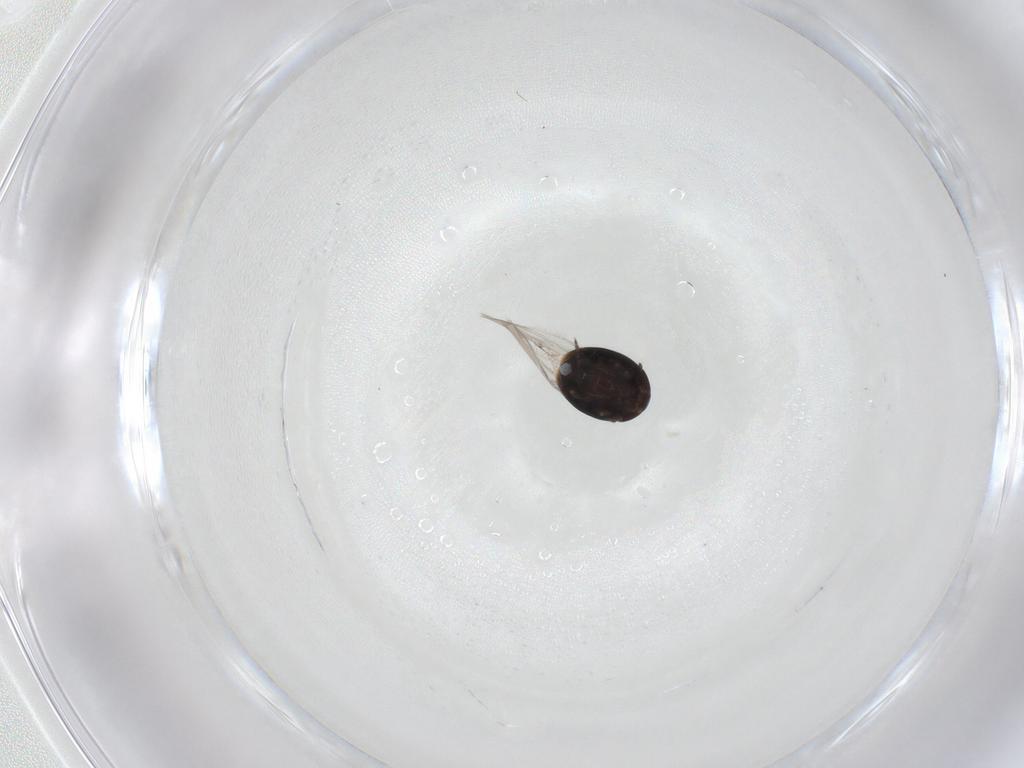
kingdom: Animalia
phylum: Arthropoda
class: Insecta
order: Coleoptera
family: Corylophidae
